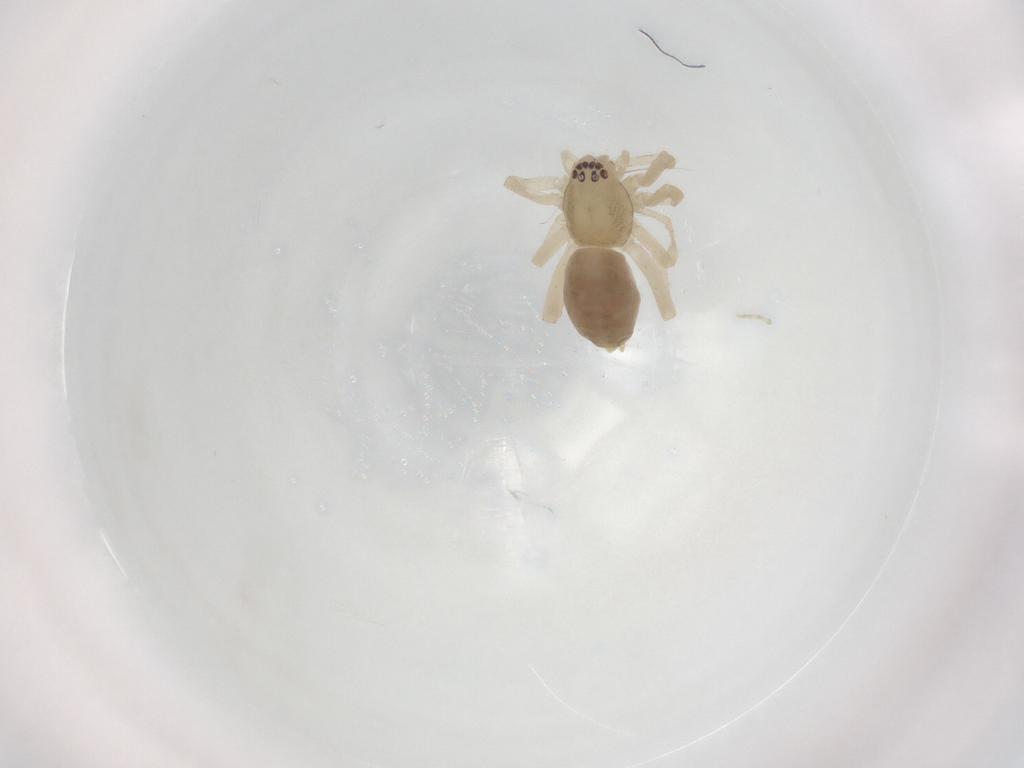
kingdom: Animalia
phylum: Arthropoda
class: Arachnida
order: Araneae
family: Anyphaenidae
